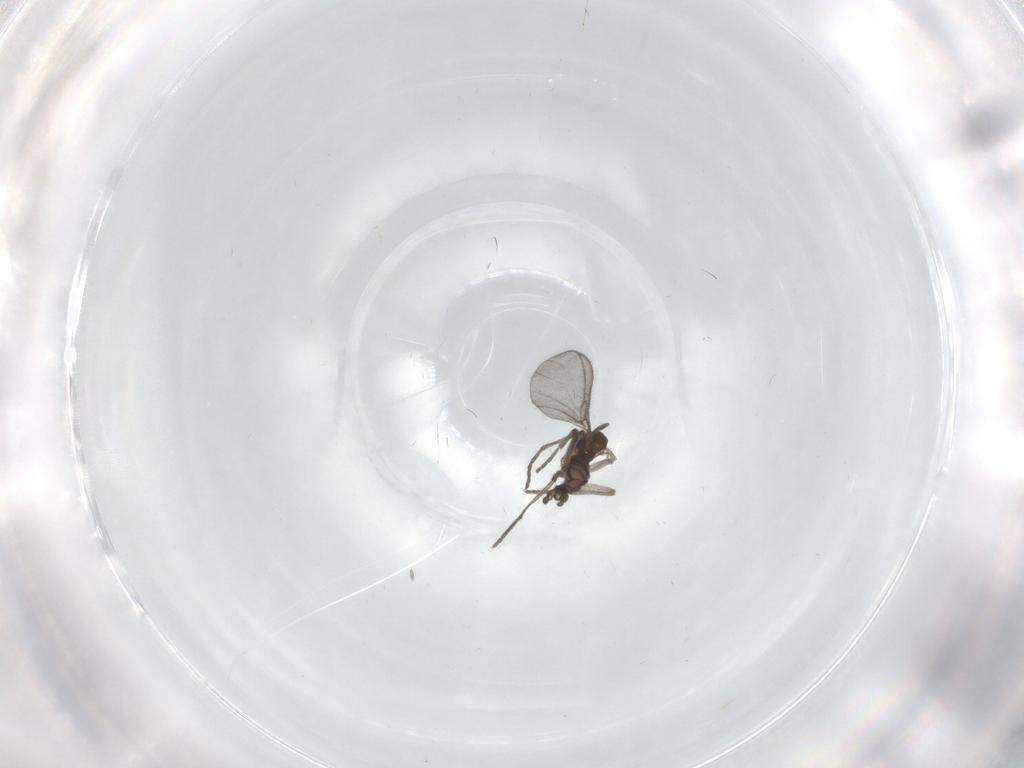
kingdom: Animalia
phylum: Arthropoda
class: Insecta
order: Diptera
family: Sciaridae
